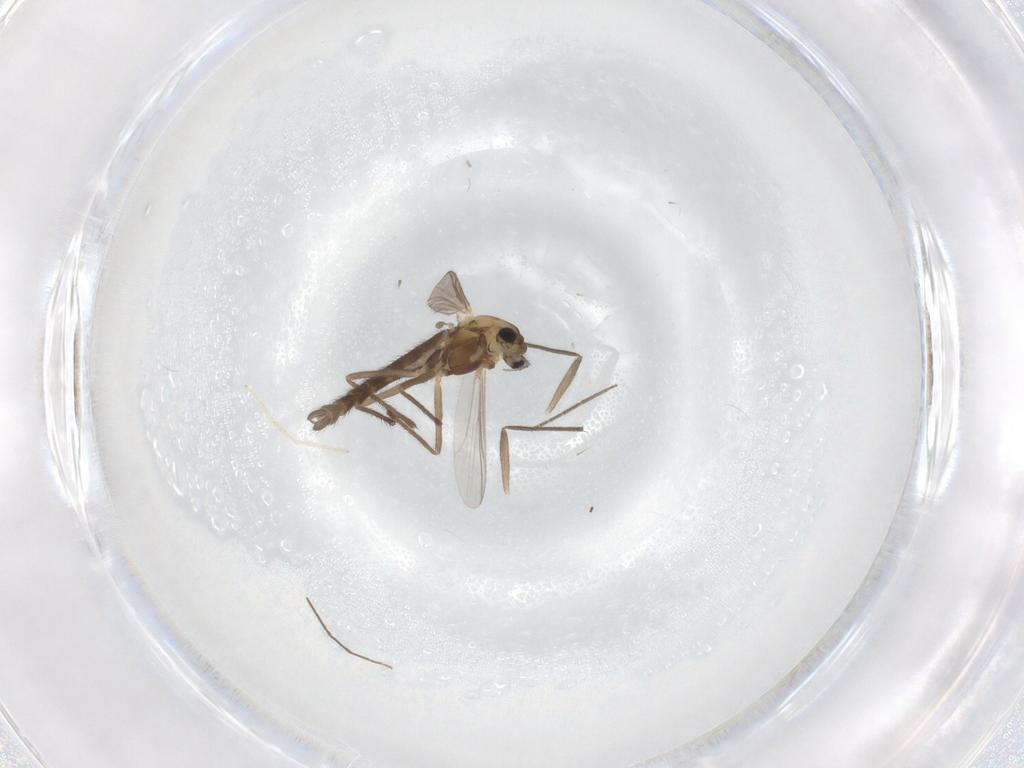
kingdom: Animalia
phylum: Arthropoda
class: Insecta
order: Diptera
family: Chironomidae
